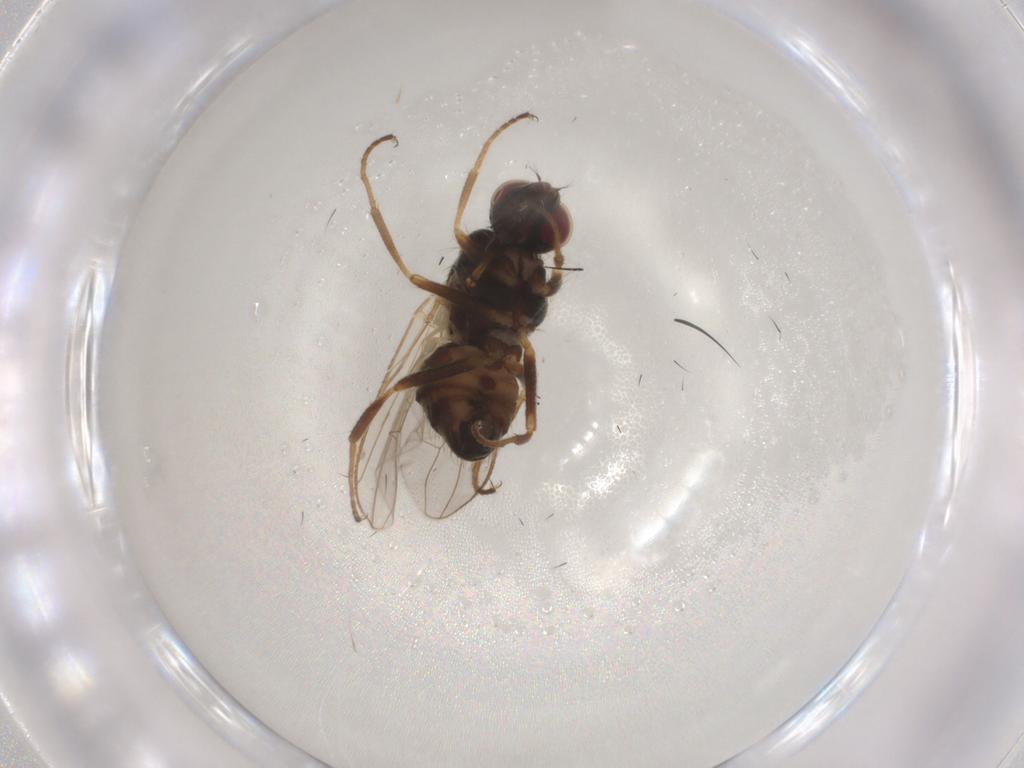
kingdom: Animalia
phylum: Arthropoda
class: Insecta
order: Diptera
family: Muscidae
